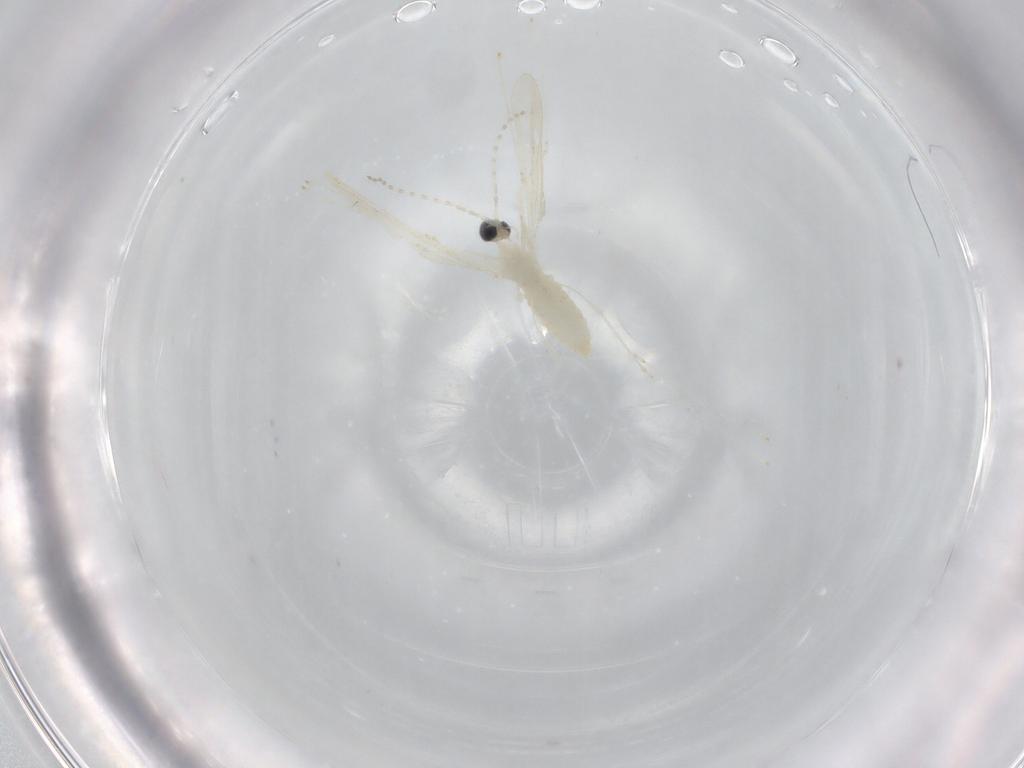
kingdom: Animalia
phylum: Arthropoda
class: Insecta
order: Diptera
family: Cecidomyiidae
